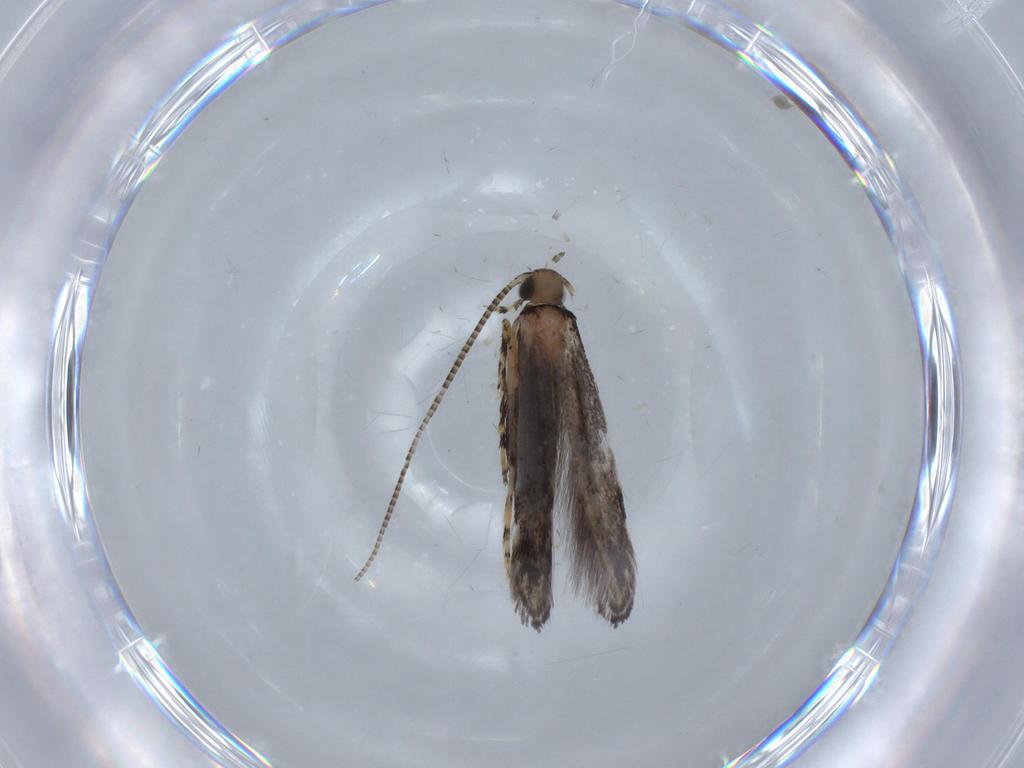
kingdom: Animalia
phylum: Arthropoda
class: Insecta
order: Lepidoptera
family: Gracillariidae
